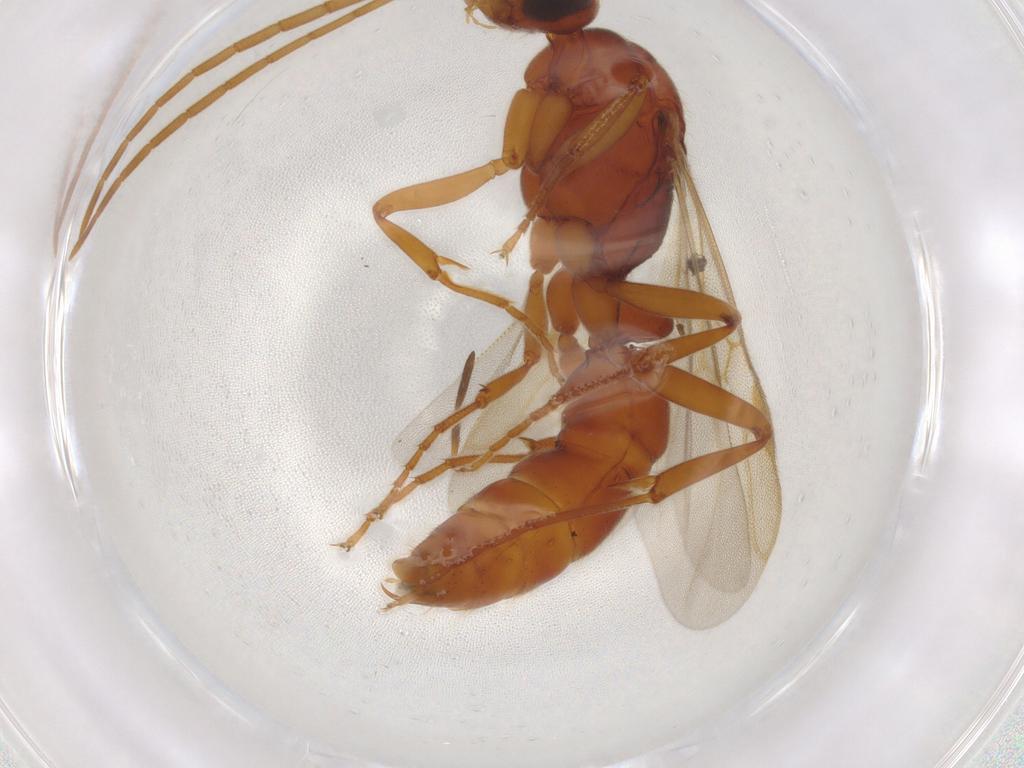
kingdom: Animalia
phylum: Arthropoda
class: Insecta
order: Hymenoptera
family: Formicidae
